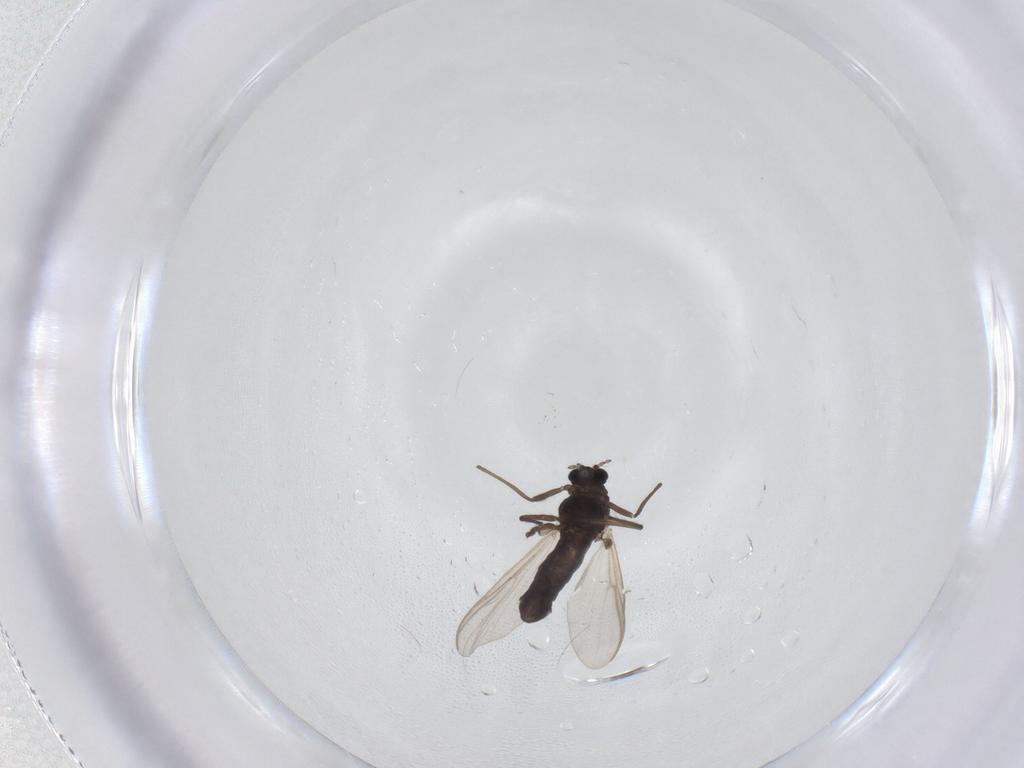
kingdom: Animalia
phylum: Arthropoda
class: Insecta
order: Diptera
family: Chironomidae
